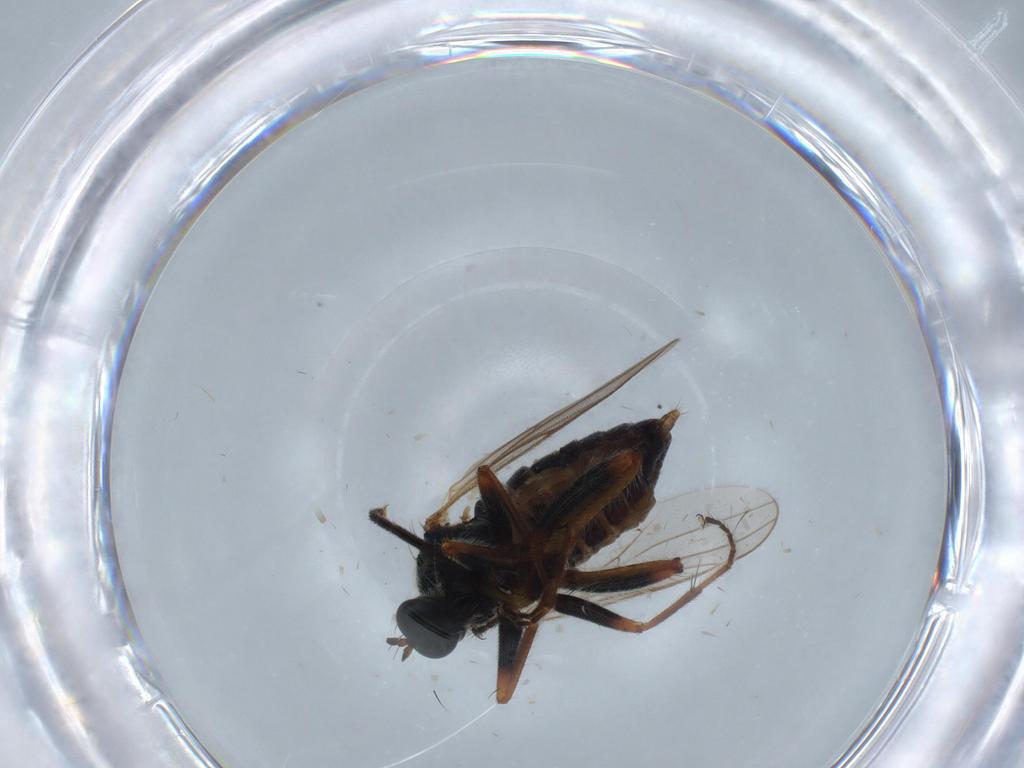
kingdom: Animalia
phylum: Arthropoda
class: Insecta
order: Diptera
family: Hybotidae
